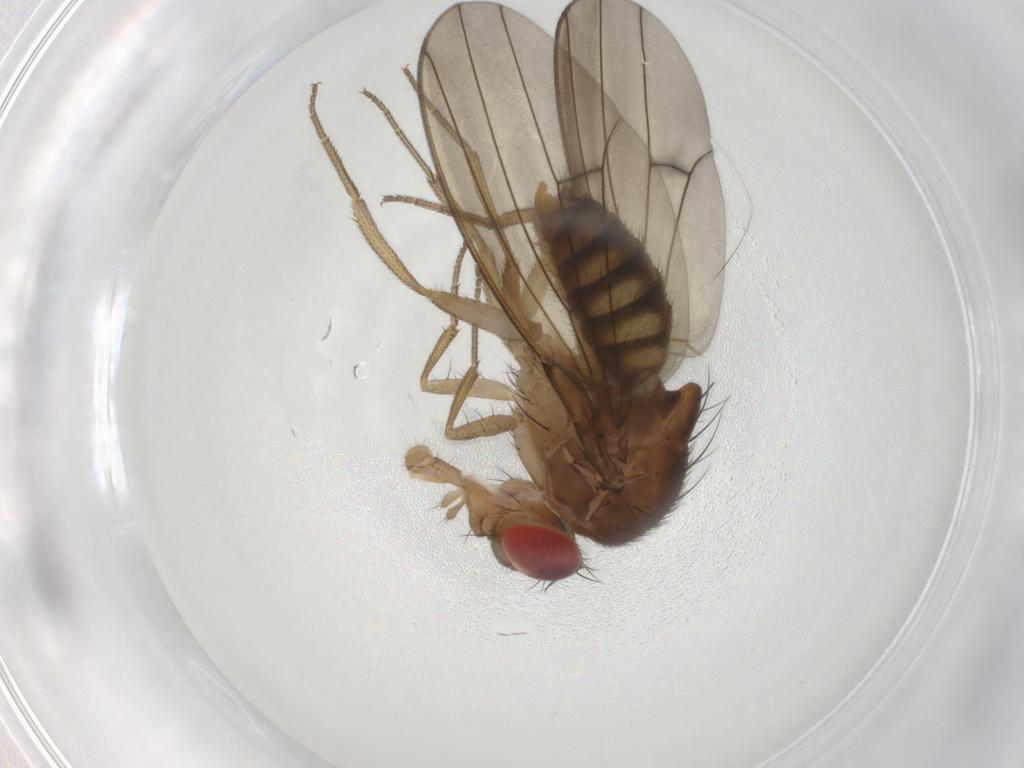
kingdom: Animalia
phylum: Arthropoda
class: Insecta
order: Diptera
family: Drosophilidae
